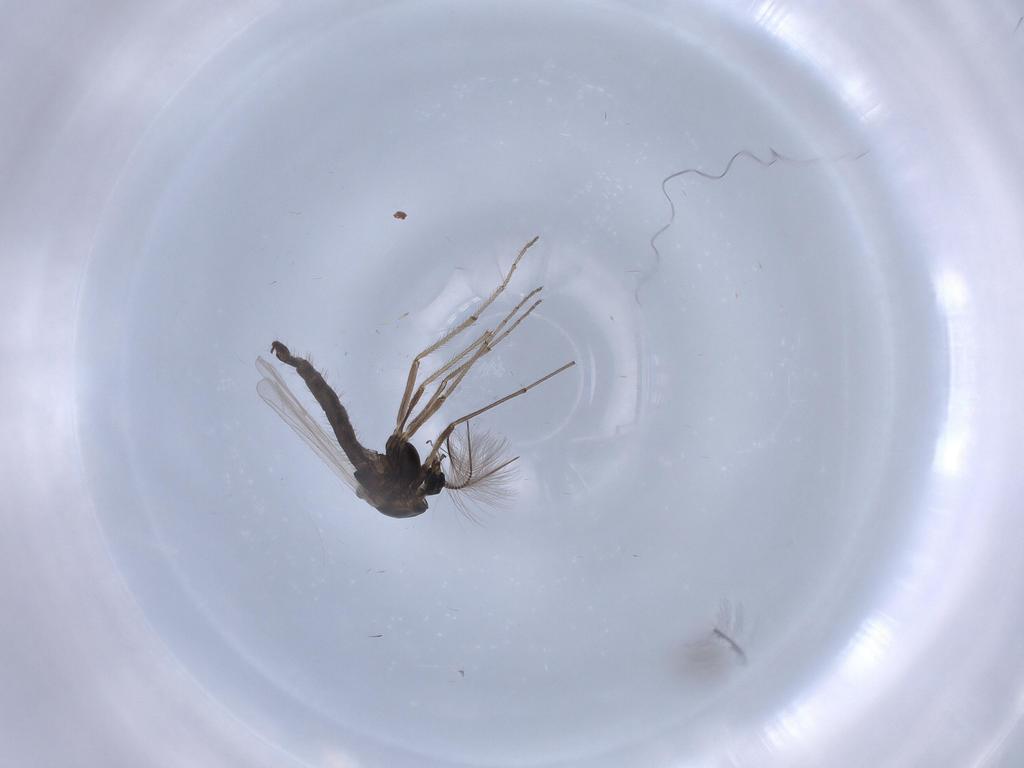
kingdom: Animalia
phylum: Arthropoda
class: Insecta
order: Diptera
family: Chironomidae
